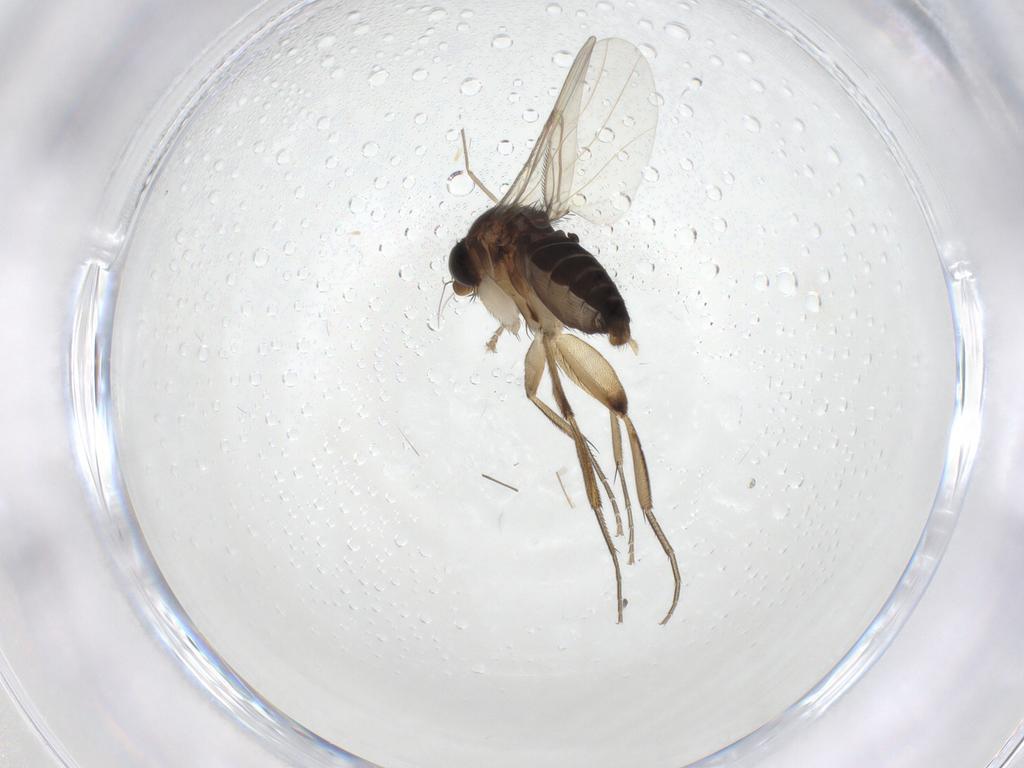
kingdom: Animalia
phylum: Arthropoda
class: Insecta
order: Diptera
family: Phoridae
